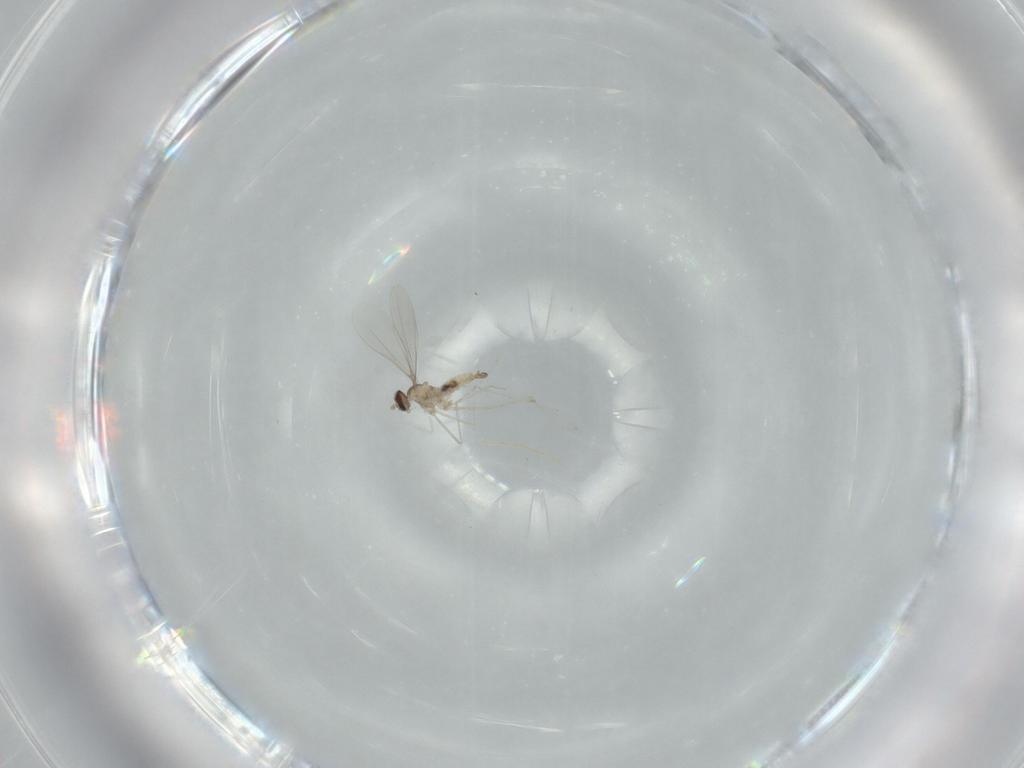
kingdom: Animalia
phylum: Arthropoda
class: Insecta
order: Diptera
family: Cecidomyiidae
